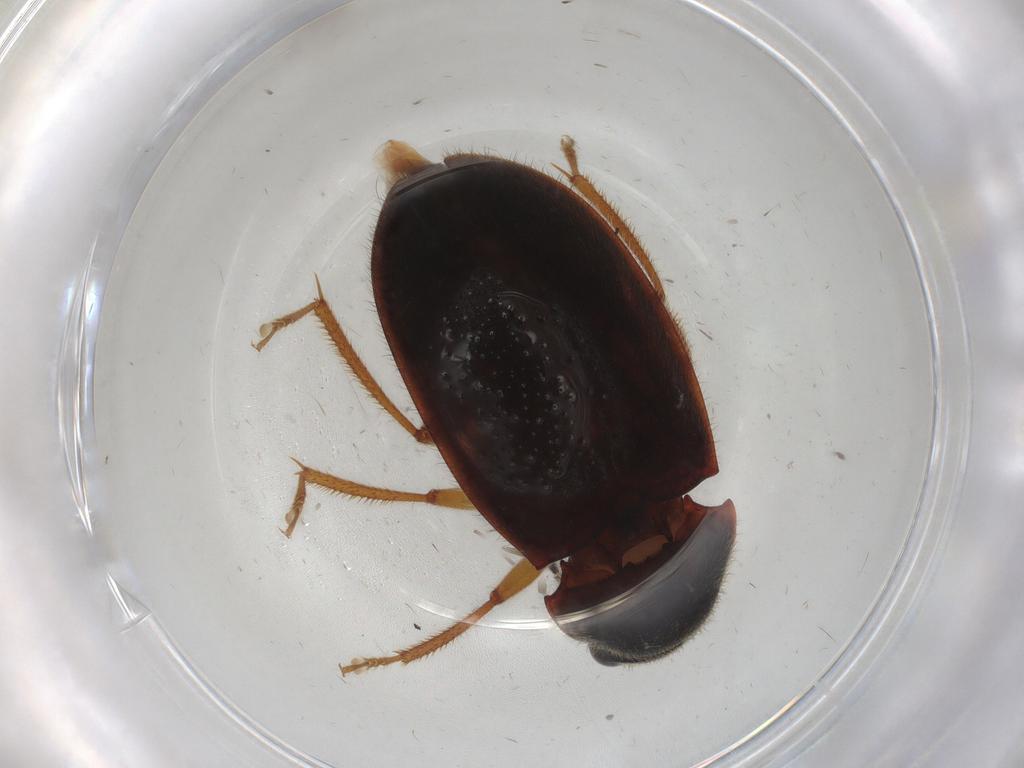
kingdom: Animalia
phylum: Arthropoda
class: Insecta
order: Coleoptera
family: Ptilodactylidae
